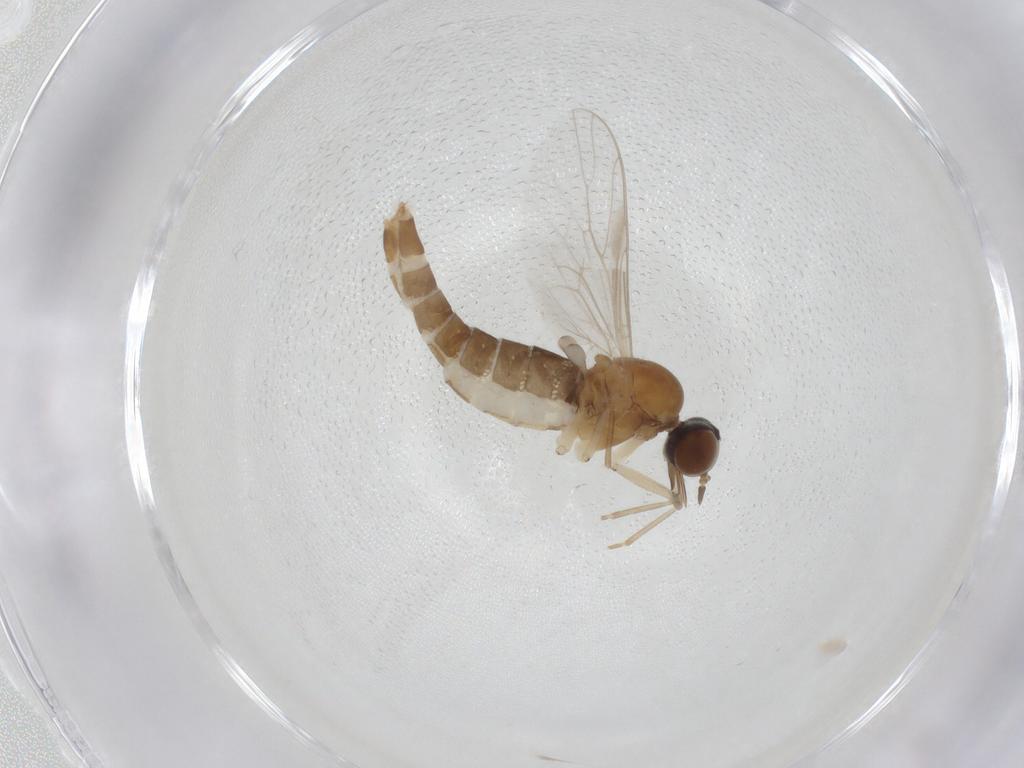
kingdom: Animalia
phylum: Arthropoda
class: Insecta
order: Diptera
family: Scenopinidae
